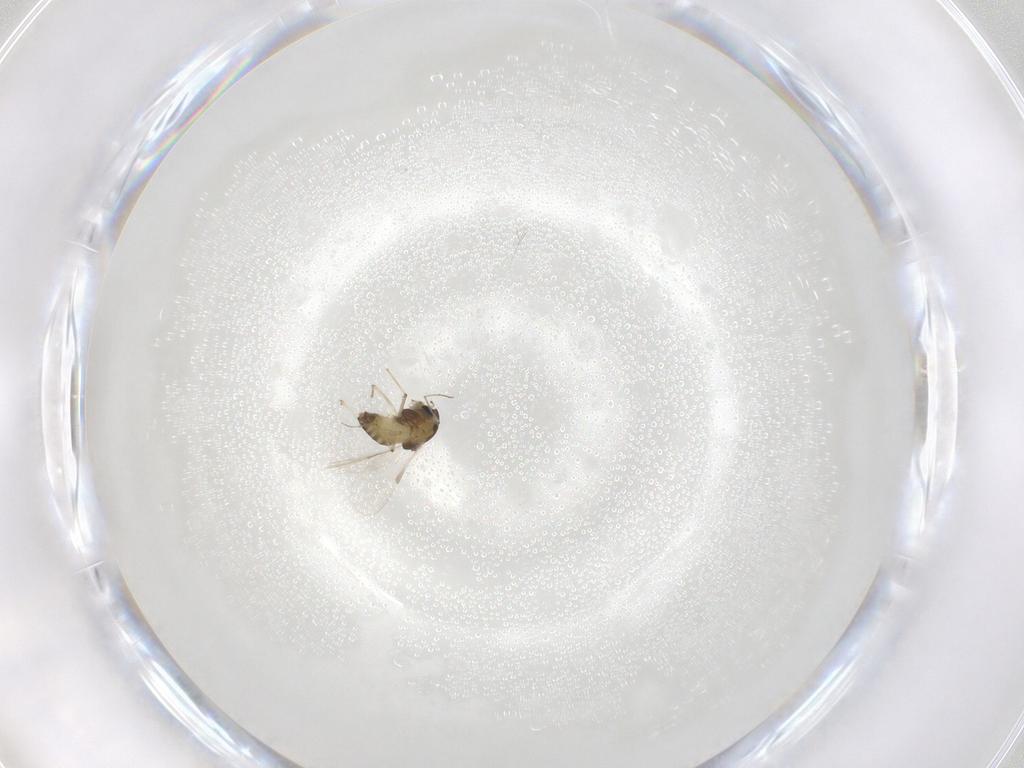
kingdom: Animalia
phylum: Arthropoda
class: Insecta
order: Diptera
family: Chironomidae
